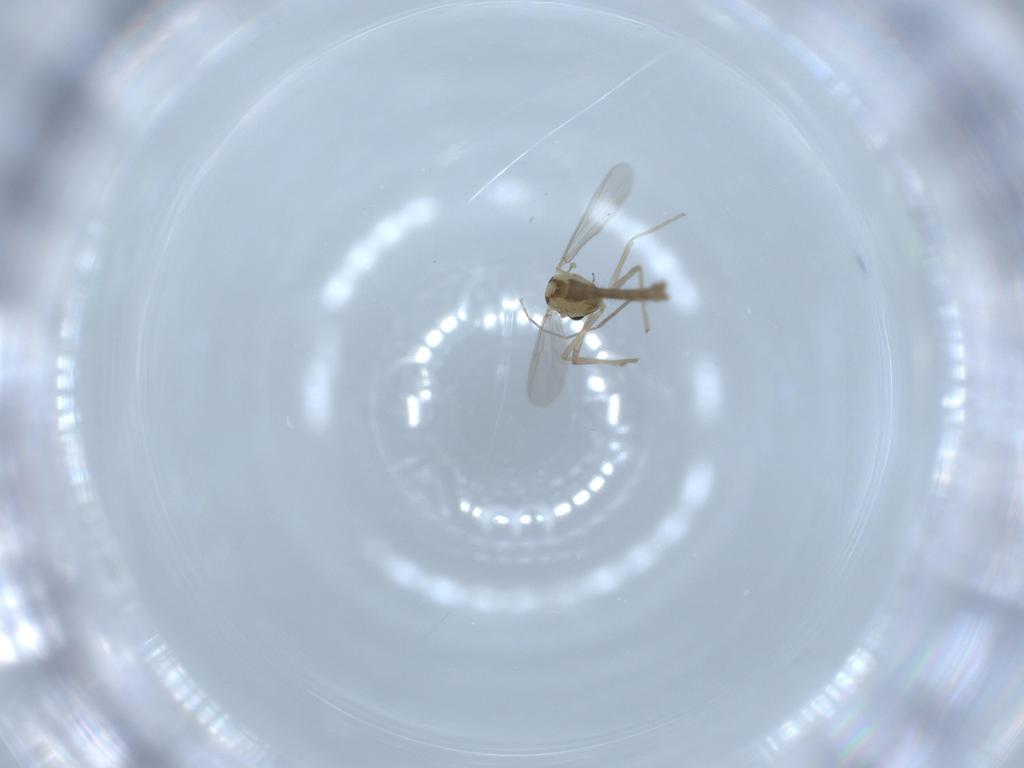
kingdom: Animalia
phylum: Arthropoda
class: Insecta
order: Diptera
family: Chironomidae
